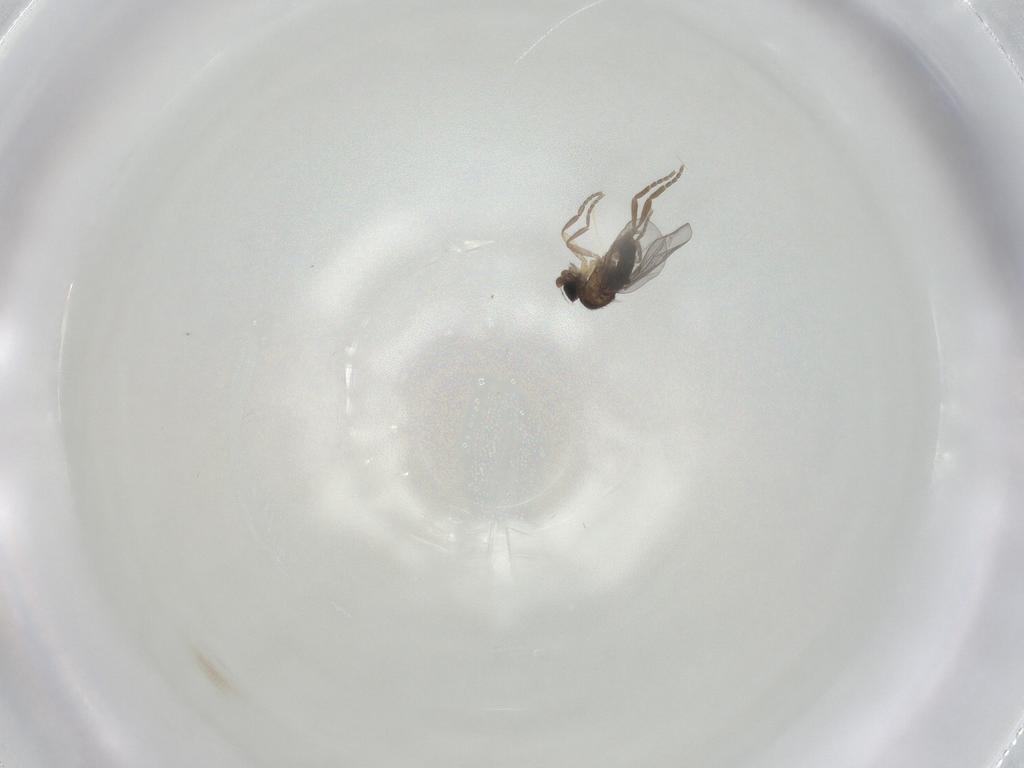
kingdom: Animalia
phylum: Arthropoda
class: Insecta
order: Diptera
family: Phoridae
